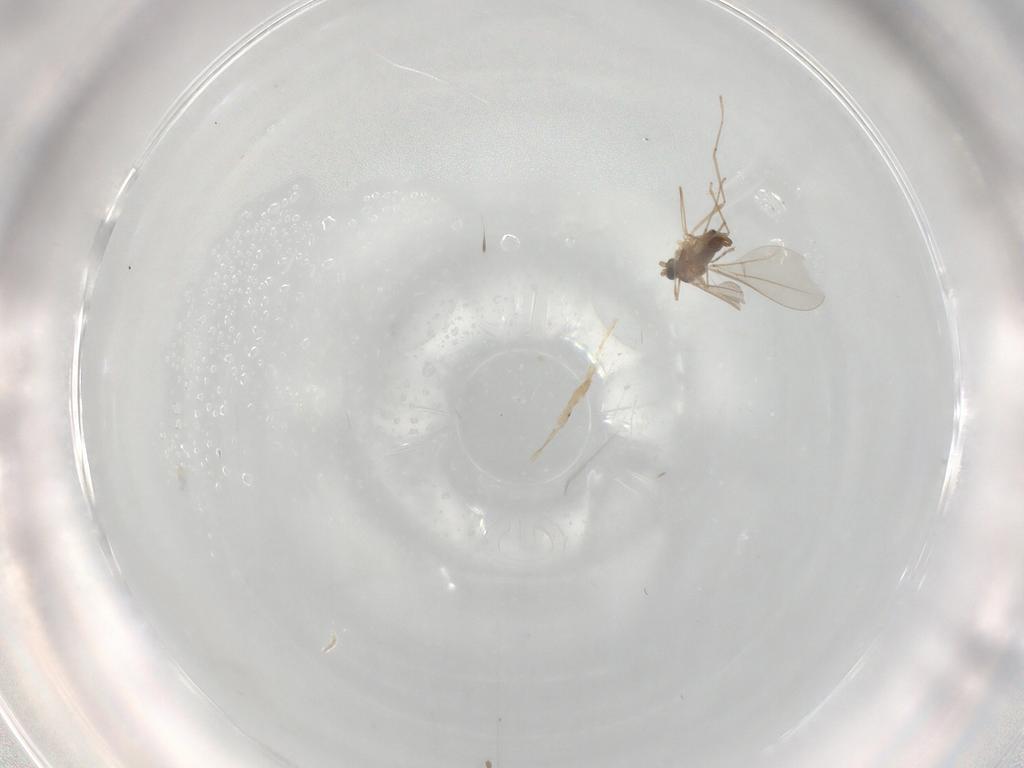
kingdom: Animalia
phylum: Arthropoda
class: Insecta
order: Diptera
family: Cecidomyiidae
